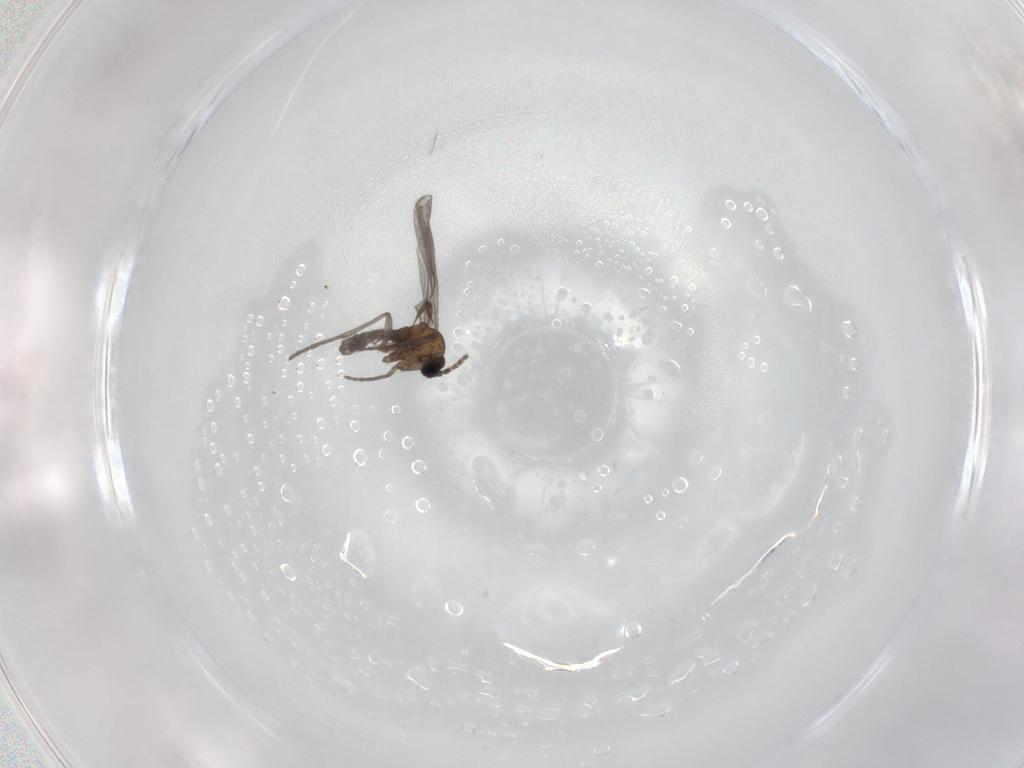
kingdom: Animalia
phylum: Arthropoda
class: Insecta
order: Diptera
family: Sciaridae
